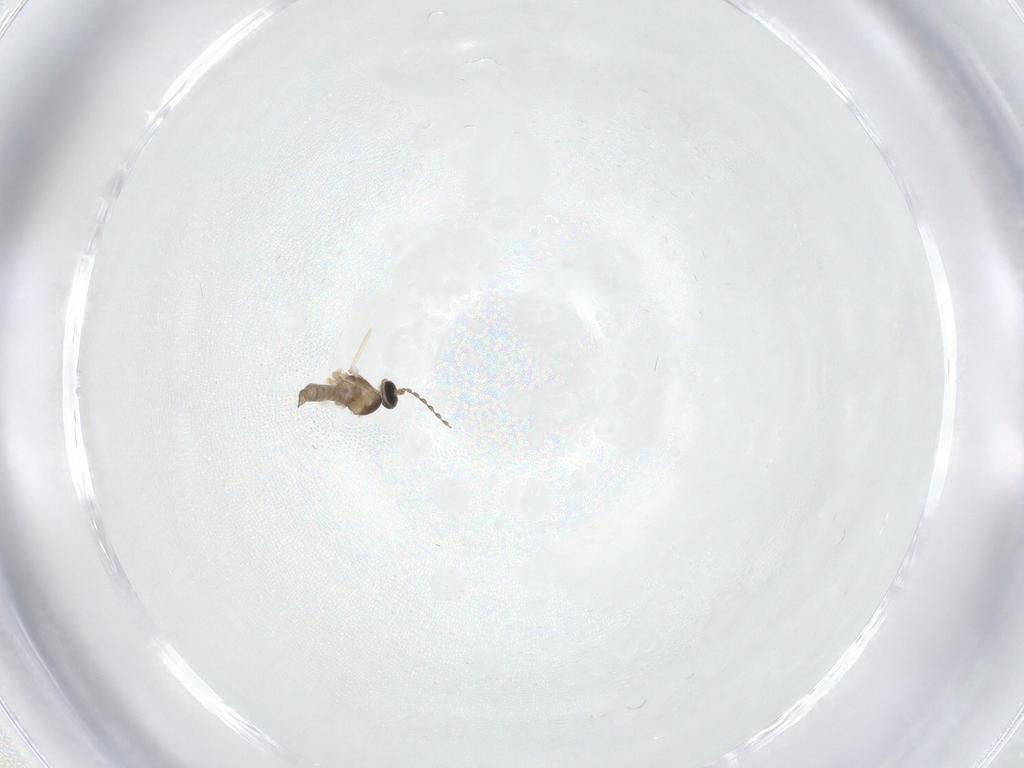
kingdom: Animalia
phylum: Arthropoda
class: Insecta
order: Diptera
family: Cecidomyiidae
